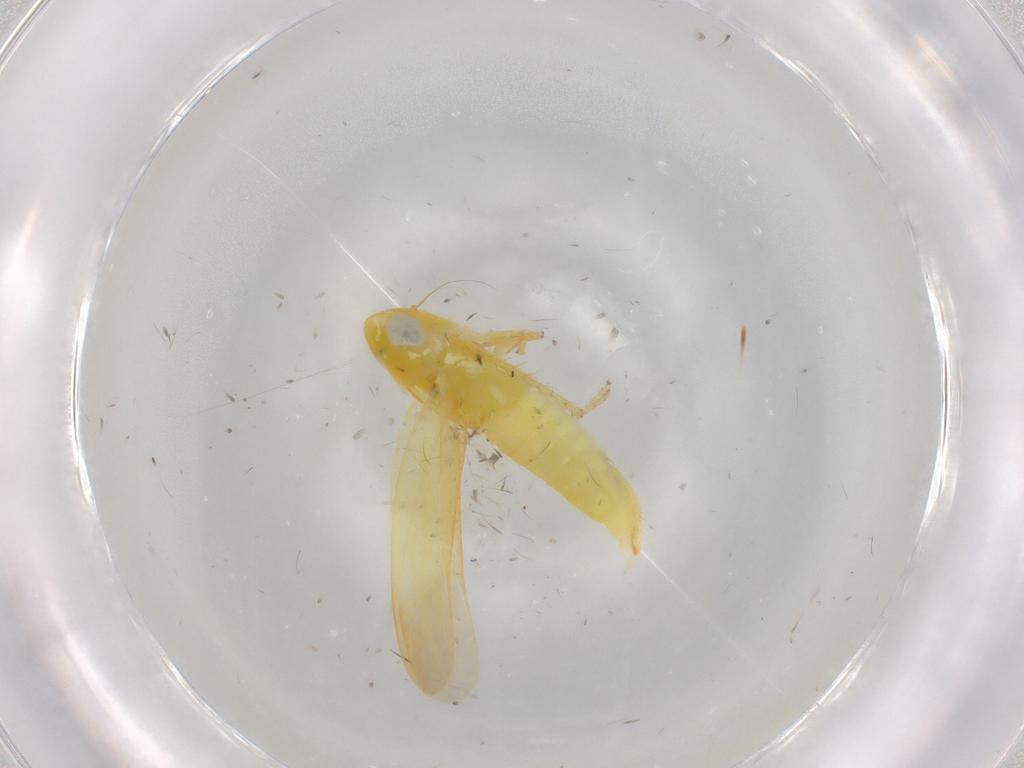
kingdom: Animalia
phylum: Arthropoda
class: Insecta
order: Hemiptera
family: Cicadellidae
